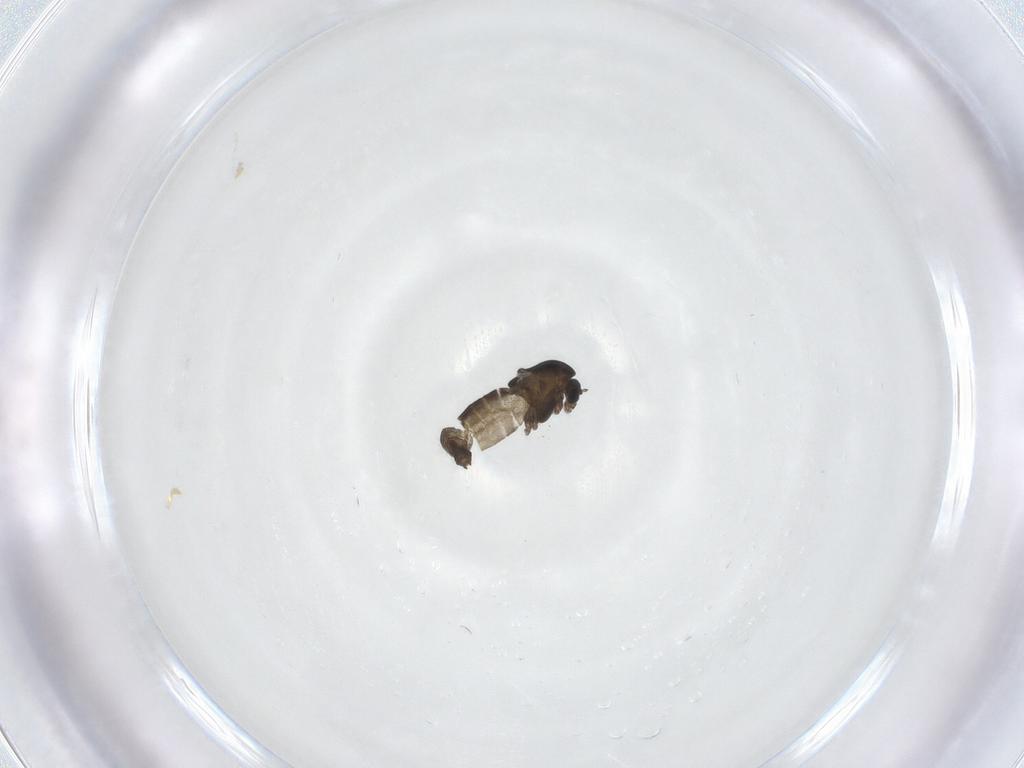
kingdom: Animalia
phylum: Arthropoda
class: Insecta
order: Diptera
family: Chironomidae
